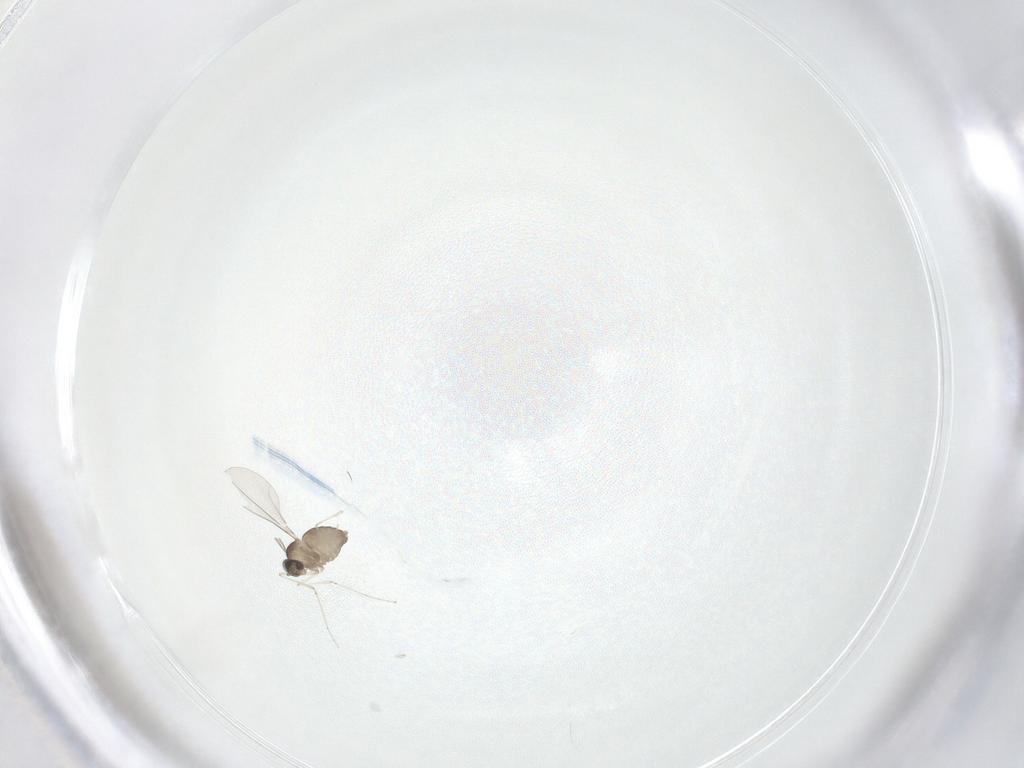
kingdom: Animalia
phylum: Arthropoda
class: Insecta
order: Diptera
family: Cecidomyiidae
